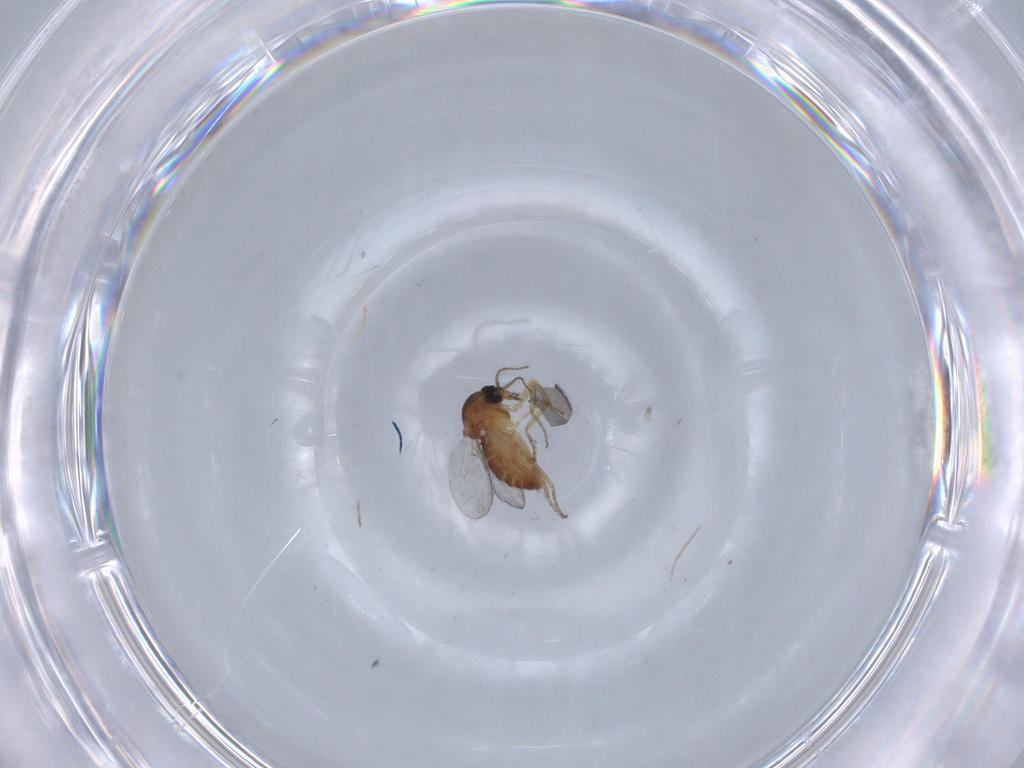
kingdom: Animalia
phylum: Arthropoda
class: Insecta
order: Diptera
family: Ceratopogonidae
